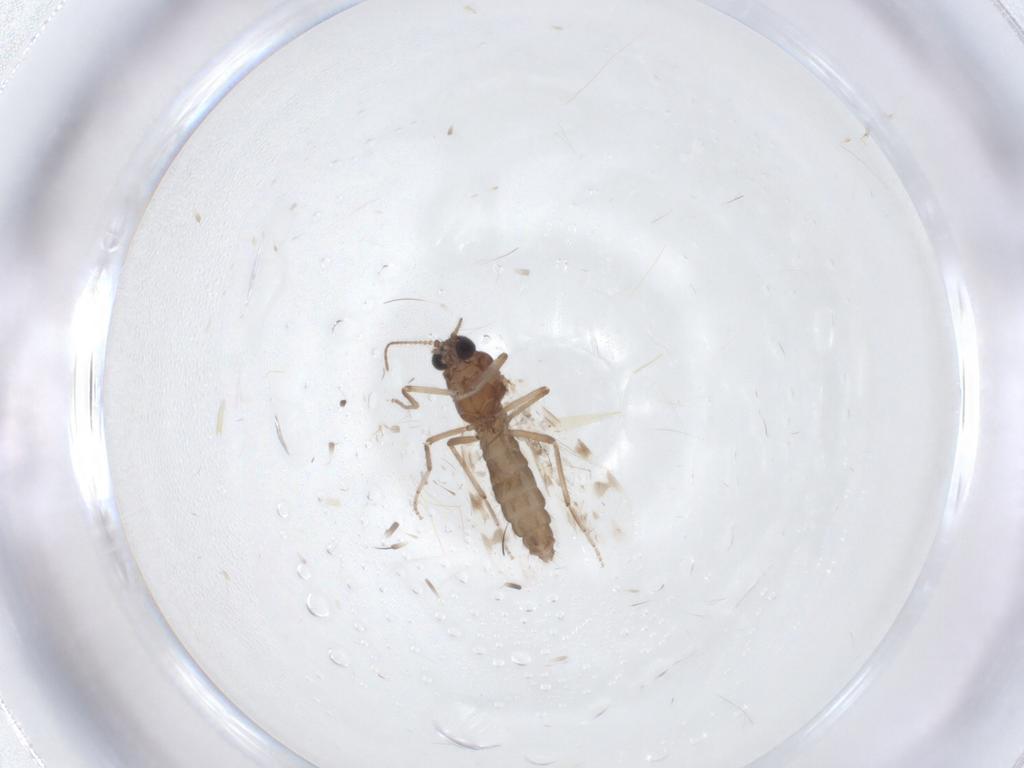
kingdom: Animalia
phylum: Arthropoda
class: Insecta
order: Diptera
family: Ceratopogonidae
